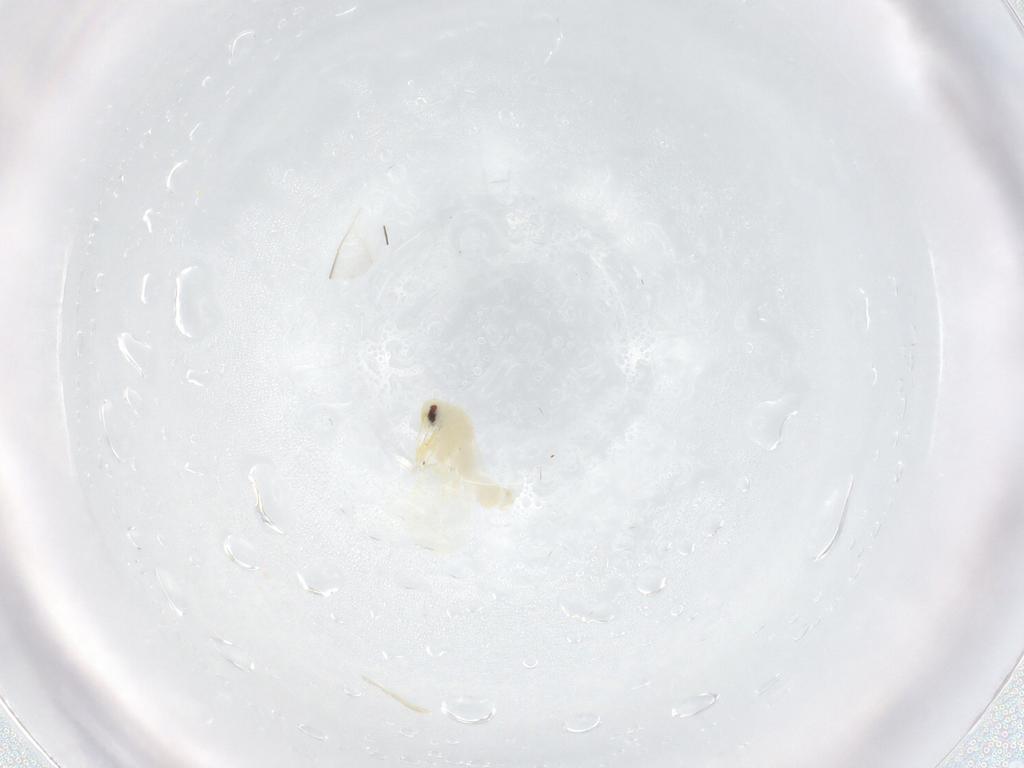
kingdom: Animalia
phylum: Arthropoda
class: Insecta
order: Hemiptera
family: Aleyrodidae
